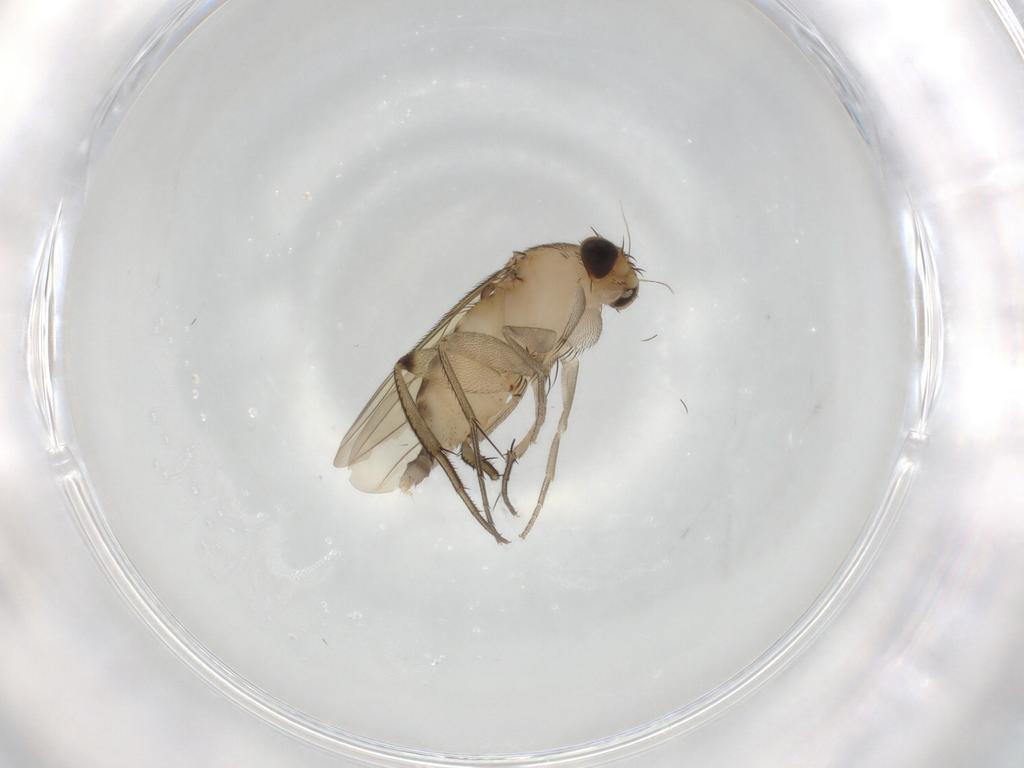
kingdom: Animalia
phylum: Arthropoda
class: Insecta
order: Diptera
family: Phoridae
